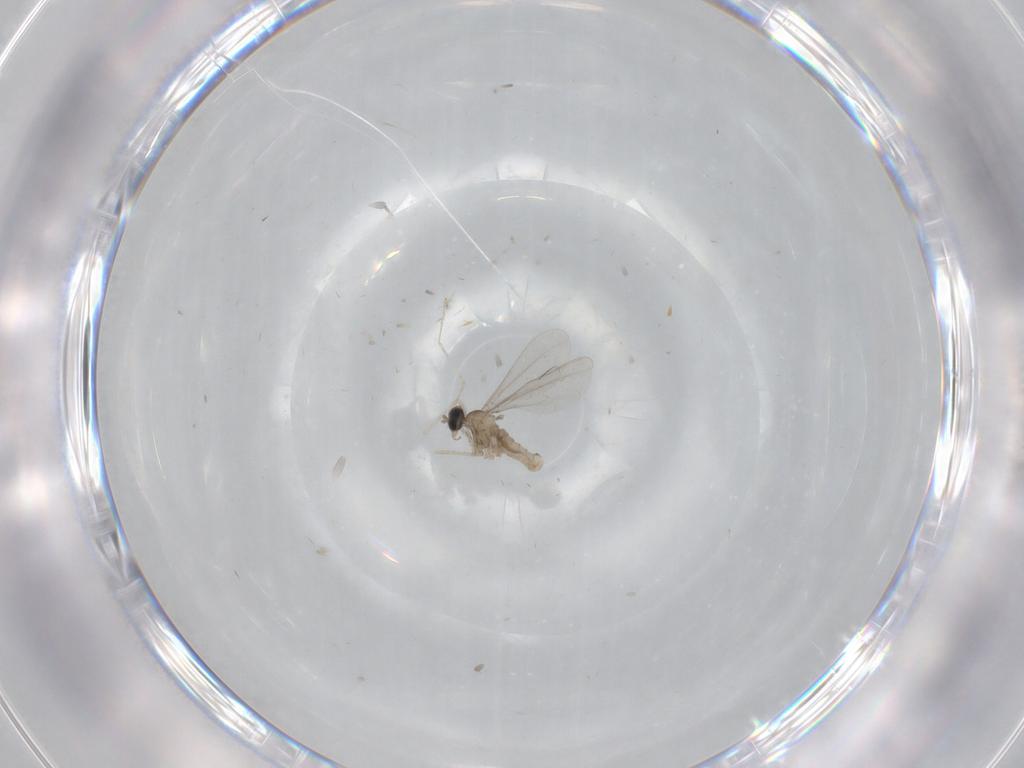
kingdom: Animalia
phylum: Arthropoda
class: Insecta
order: Diptera
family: Cecidomyiidae
